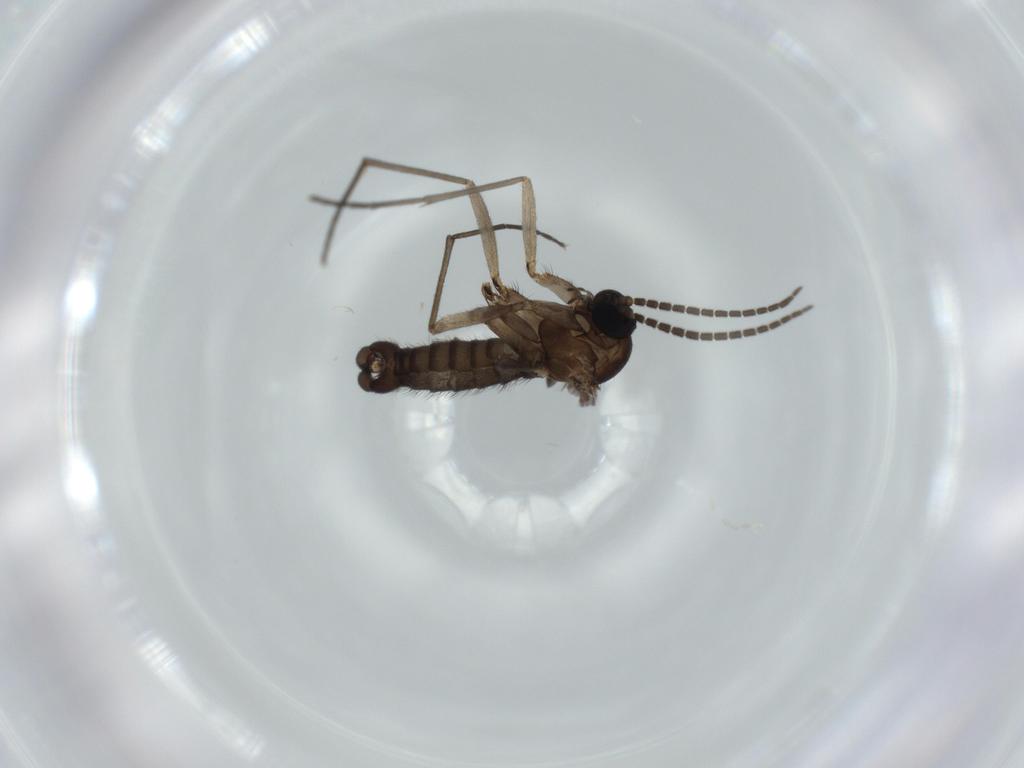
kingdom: Animalia
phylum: Arthropoda
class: Insecta
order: Diptera
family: Sciaridae
